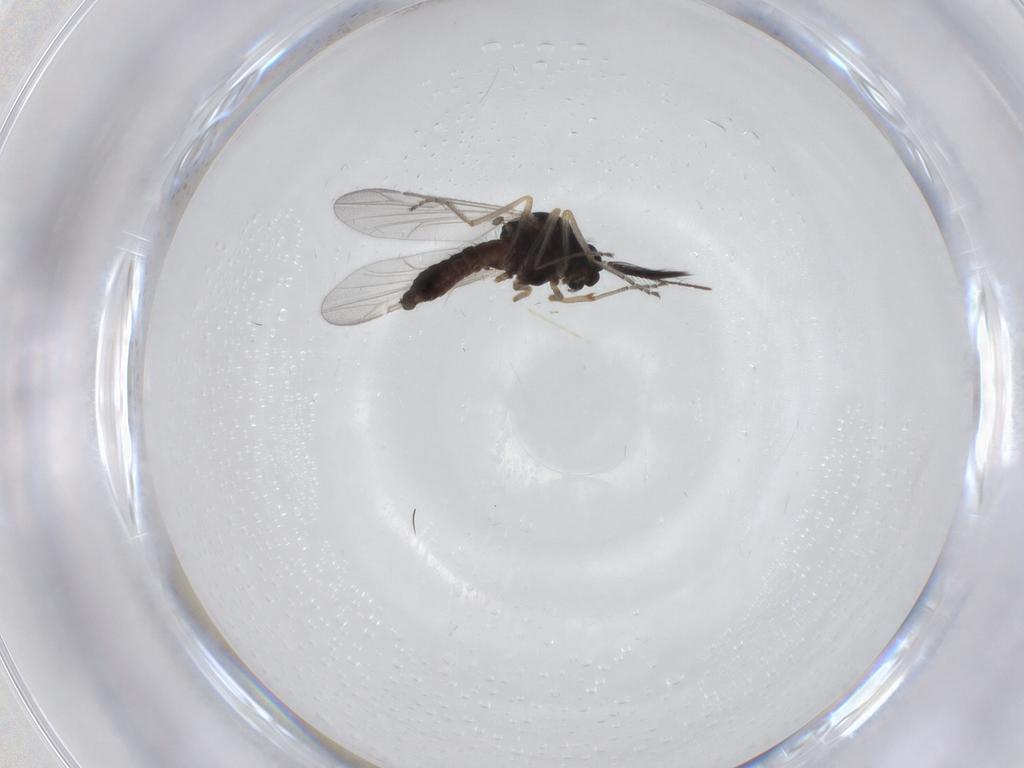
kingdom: Animalia
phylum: Arthropoda
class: Insecta
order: Diptera
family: Ceratopogonidae
